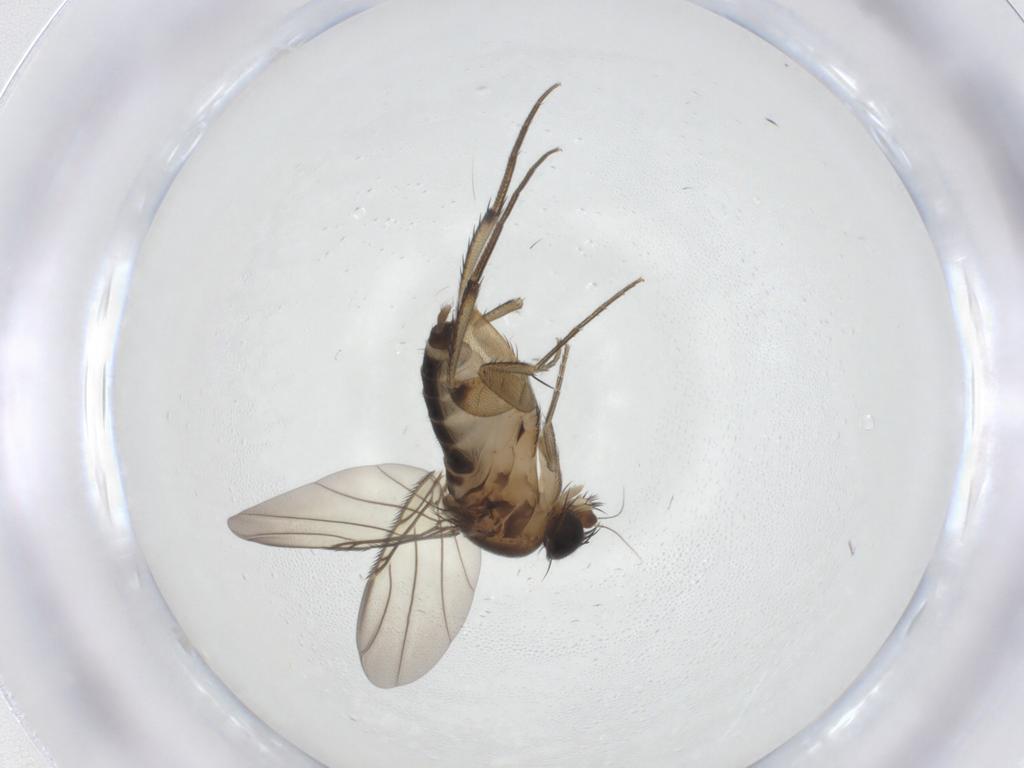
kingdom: Animalia
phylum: Arthropoda
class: Insecta
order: Diptera
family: Phoridae
